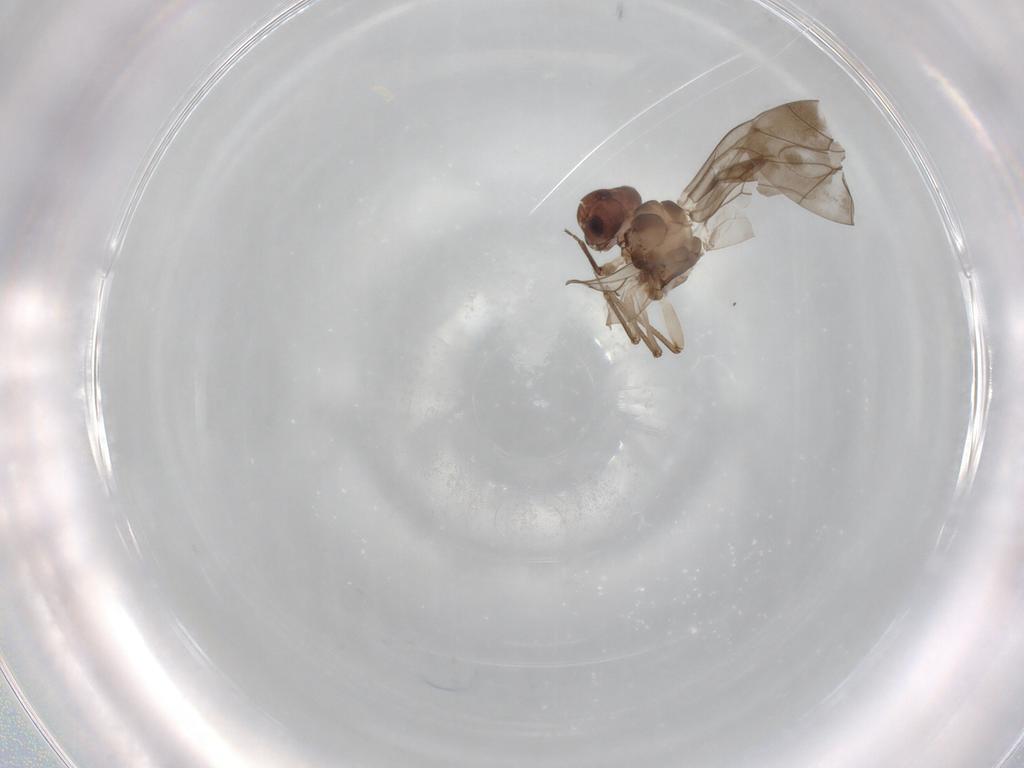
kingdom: Animalia
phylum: Arthropoda
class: Insecta
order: Psocodea
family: Peripsocidae
